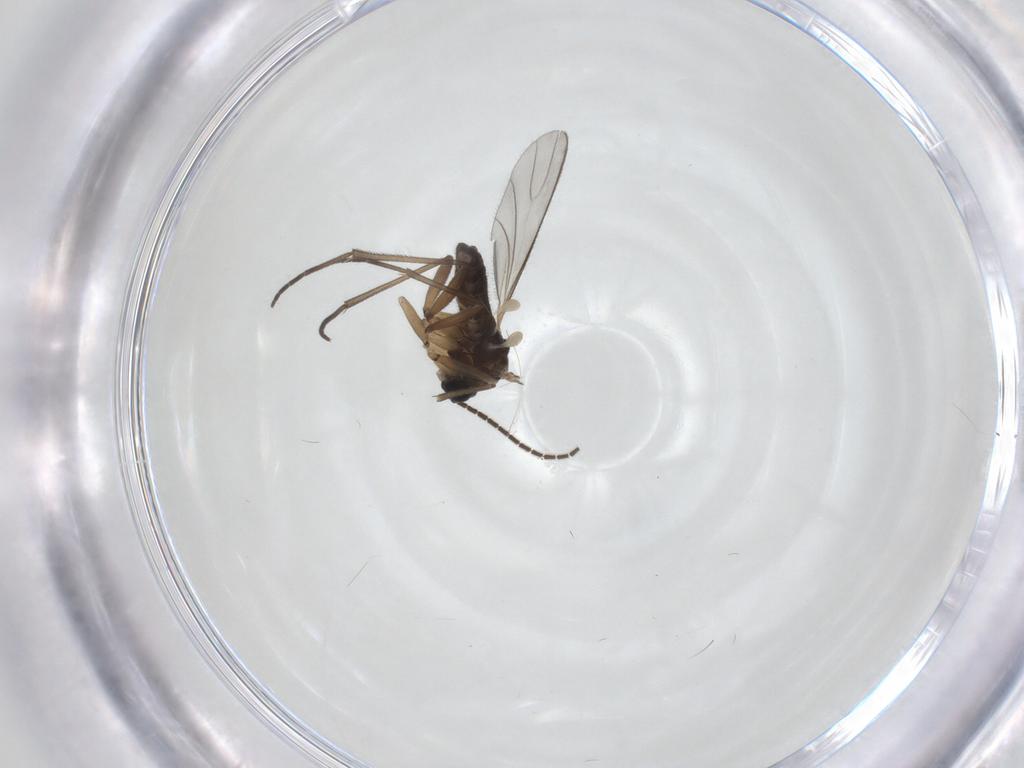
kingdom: Animalia
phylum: Arthropoda
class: Insecta
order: Diptera
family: Sciaridae
